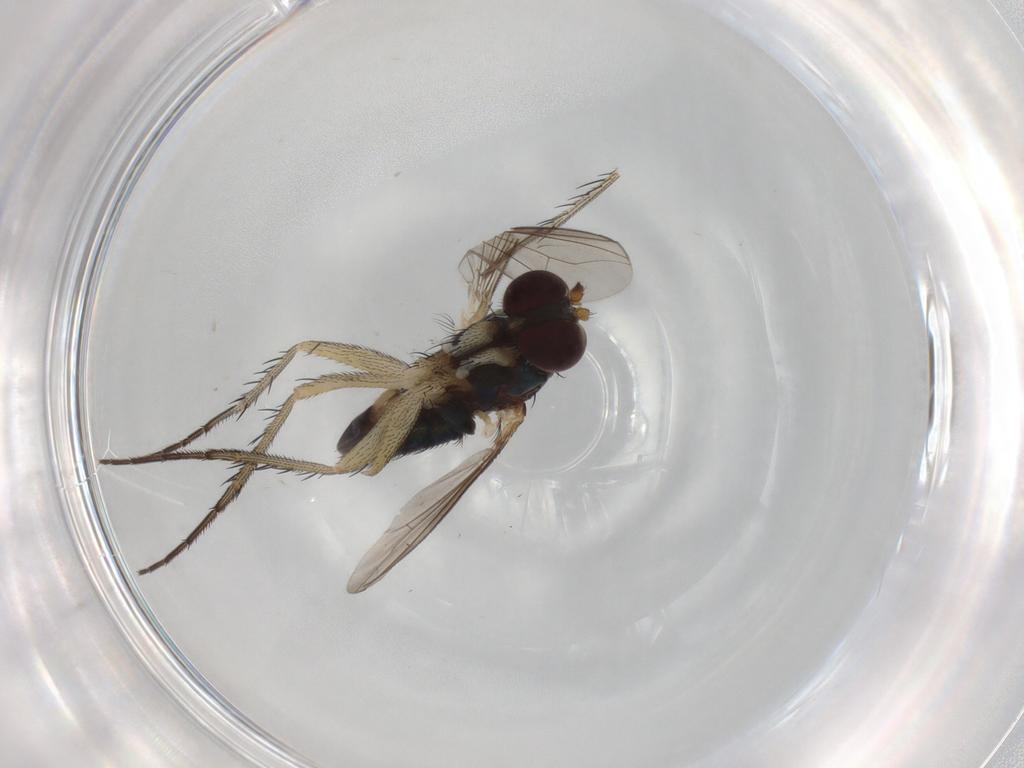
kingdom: Animalia
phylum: Arthropoda
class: Insecta
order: Diptera
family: Dolichopodidae
